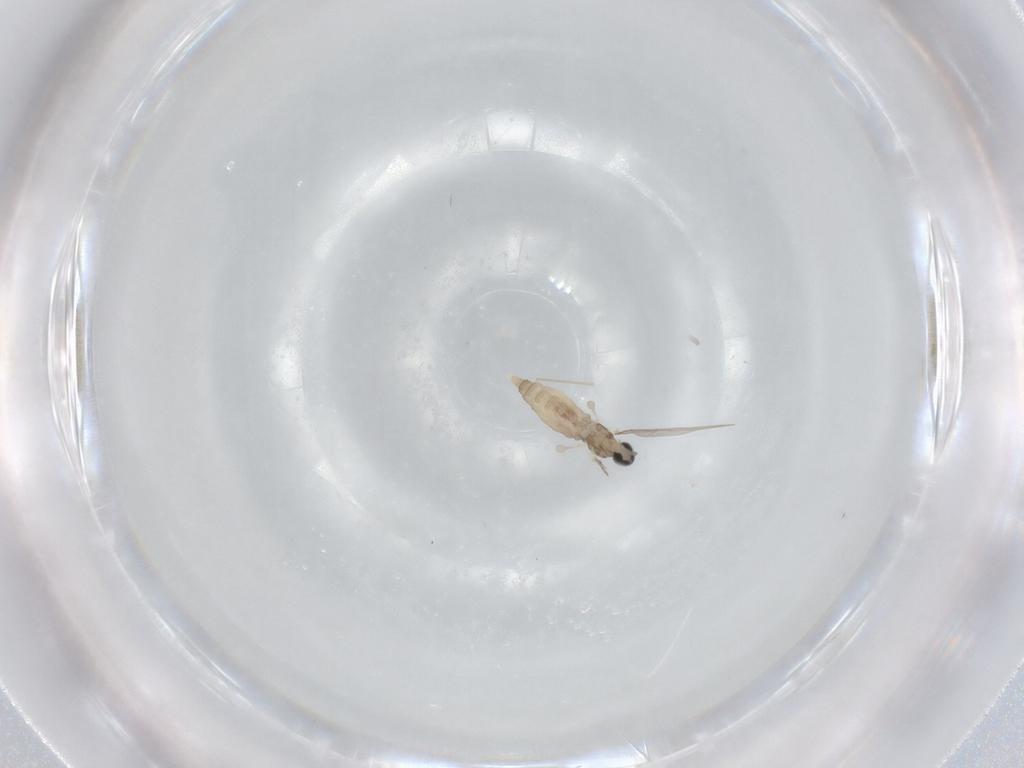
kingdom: Animalia
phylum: Arthropoda
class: Insecta
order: Diptera
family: Cecidomyiidae
